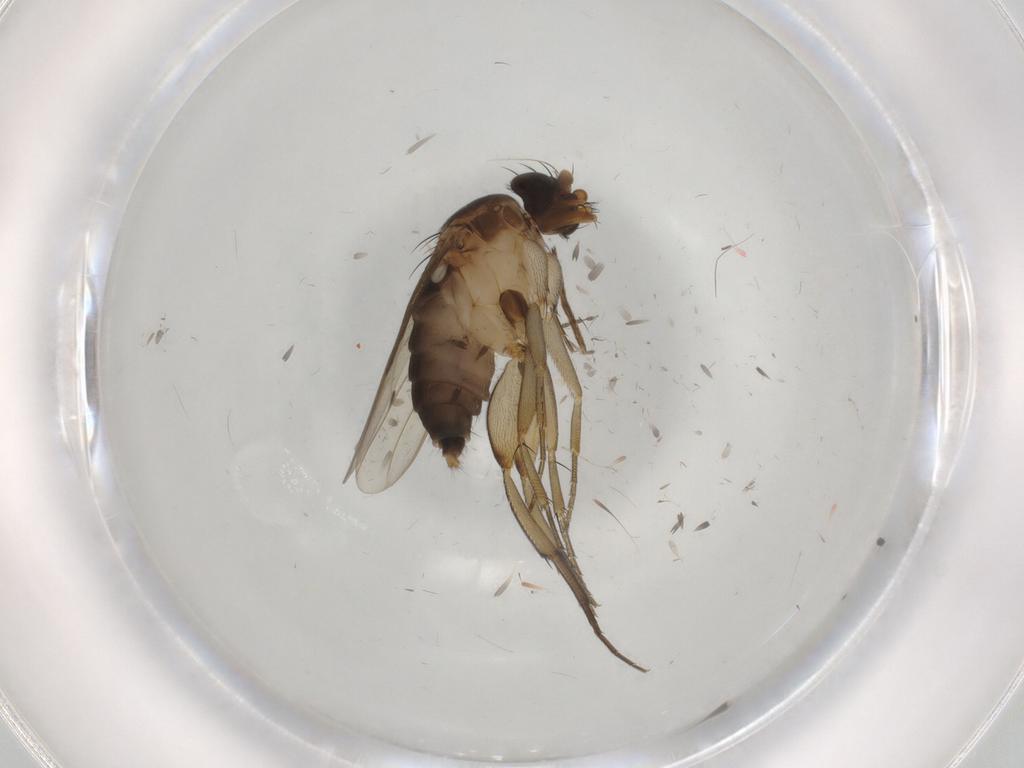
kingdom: Animalia
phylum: Arthropoda
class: Insecta
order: Diptera
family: Phoridae
